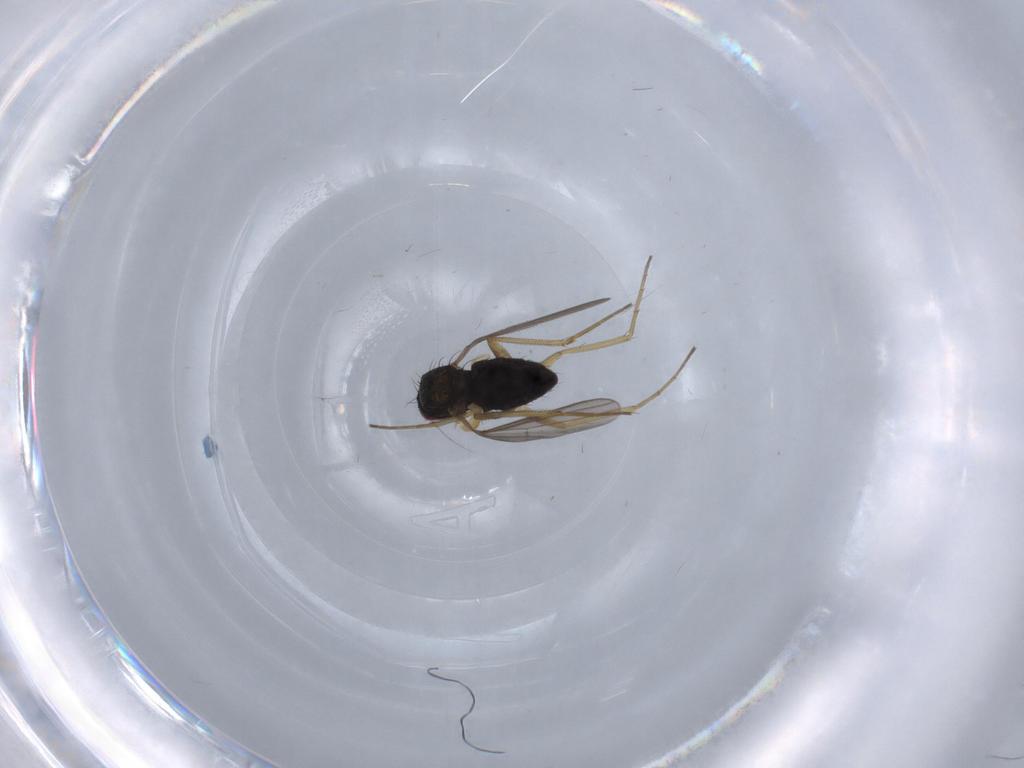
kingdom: Animalia
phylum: Arthropoda
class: Insecta
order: Diptera
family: Dolichopodidae
